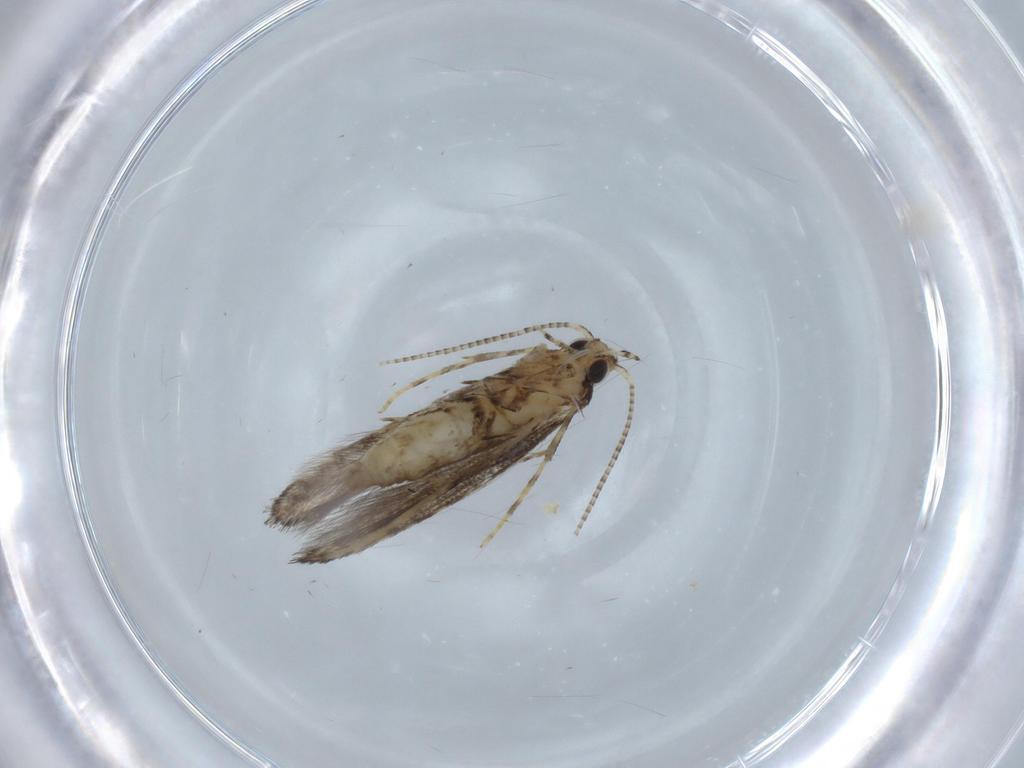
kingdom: Animalia
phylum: Arthropoda
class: Insecta
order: Lepidoptera
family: Gracillariidae
